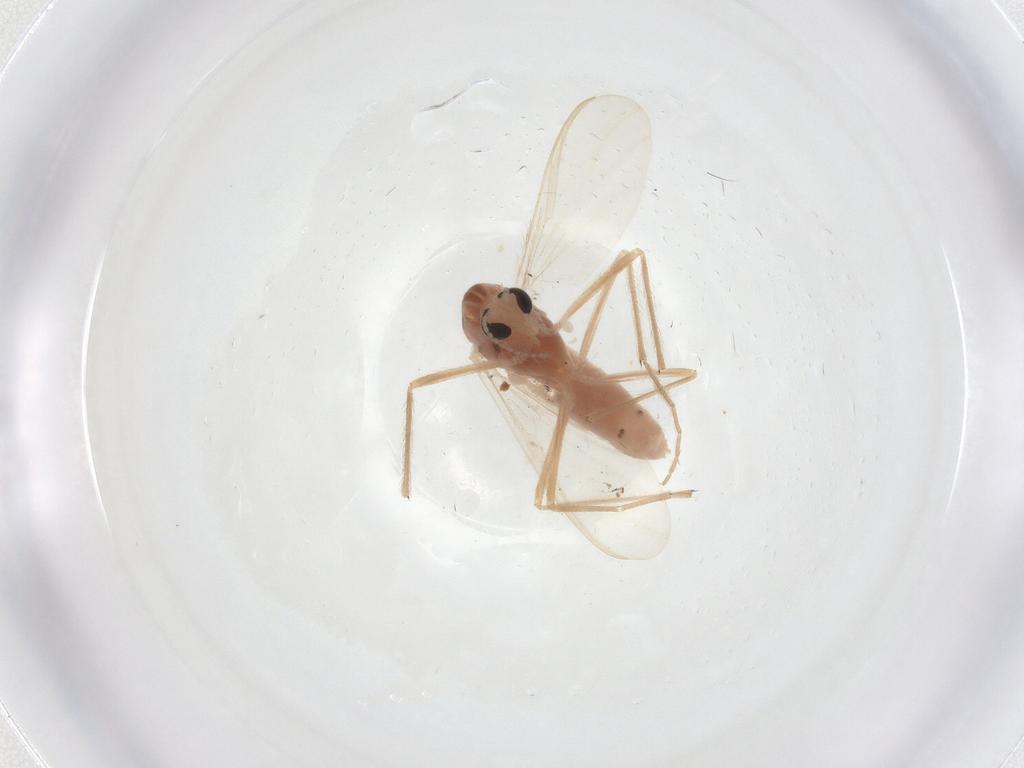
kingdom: Animalia
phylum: Arthropoda
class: Insecta
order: Diptera
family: Chironomidae
